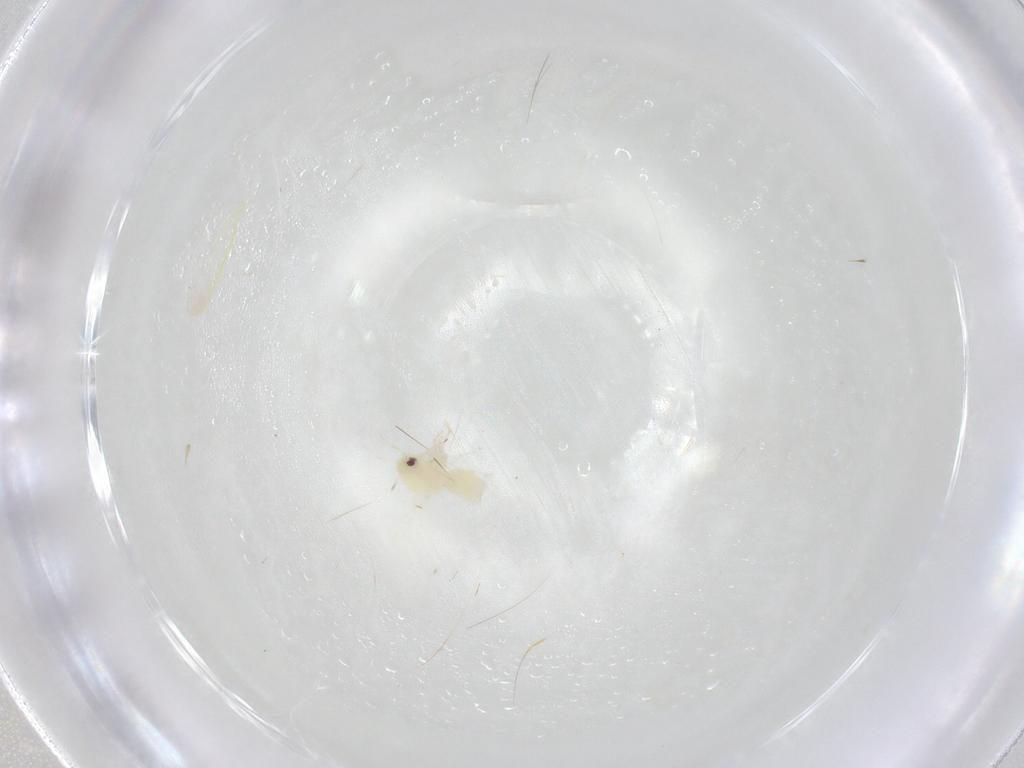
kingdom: Animalia
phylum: Arthropoda
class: Insecta
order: Hemiptera
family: Aleyrodidae
